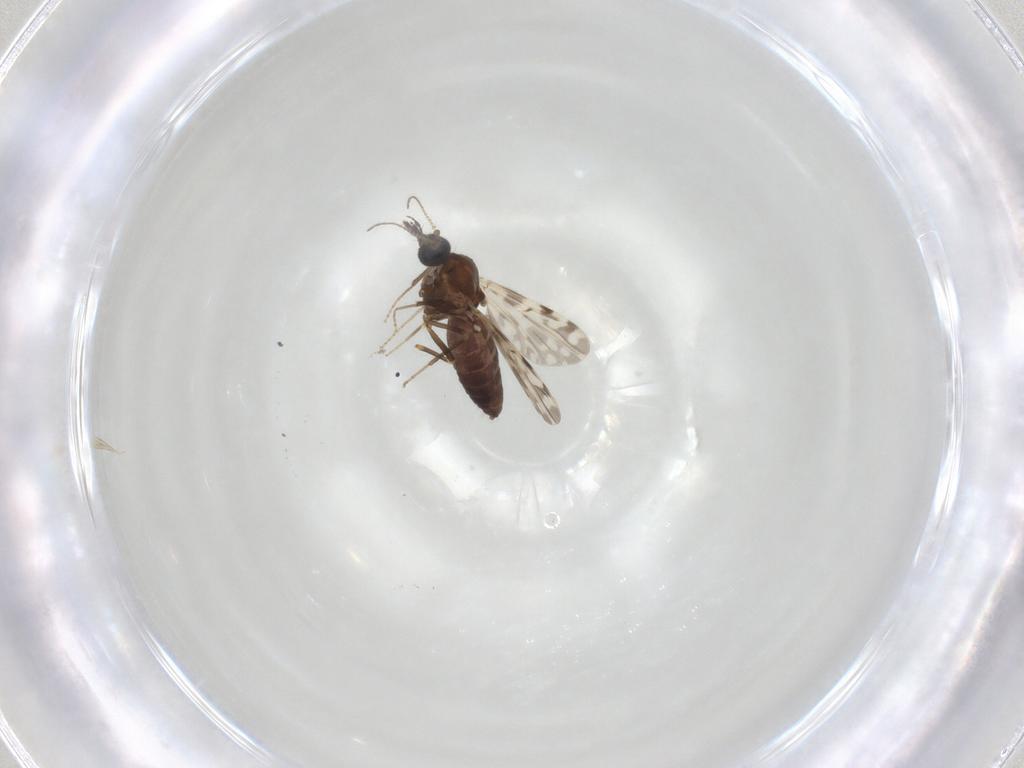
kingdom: Animalia
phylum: Arthropoda
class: Insecta
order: Diptera
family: Ceratopogonidae
